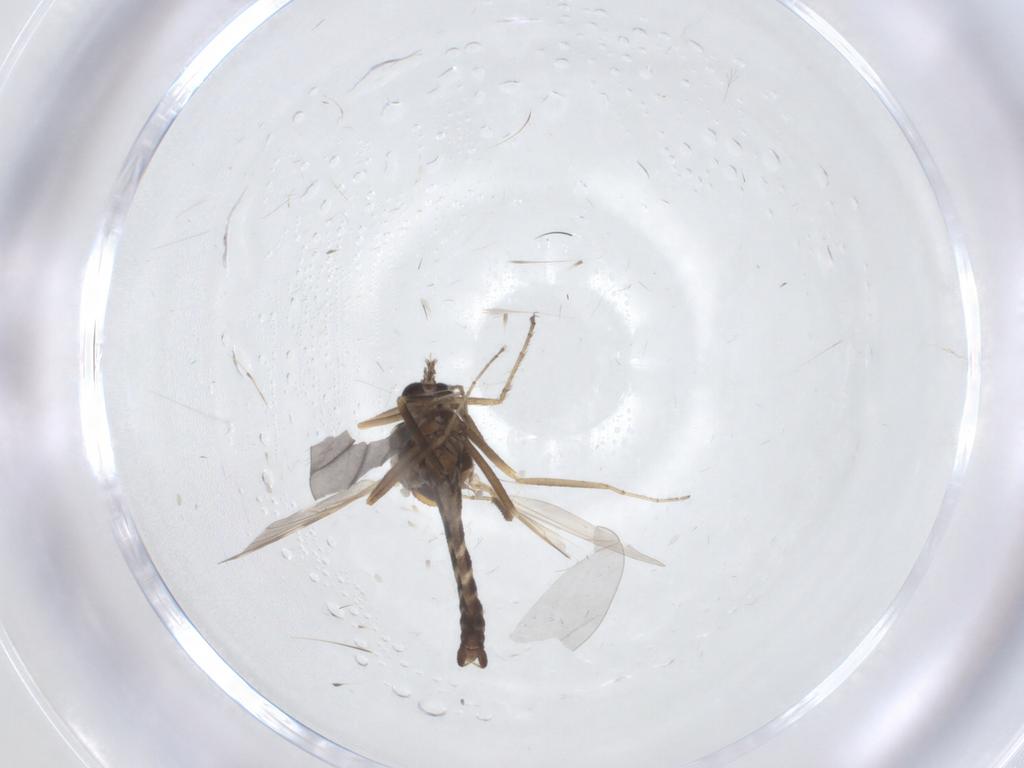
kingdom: Animalia
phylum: Arthropoda
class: Insecta
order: Diptera
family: Ceratopogonidae
